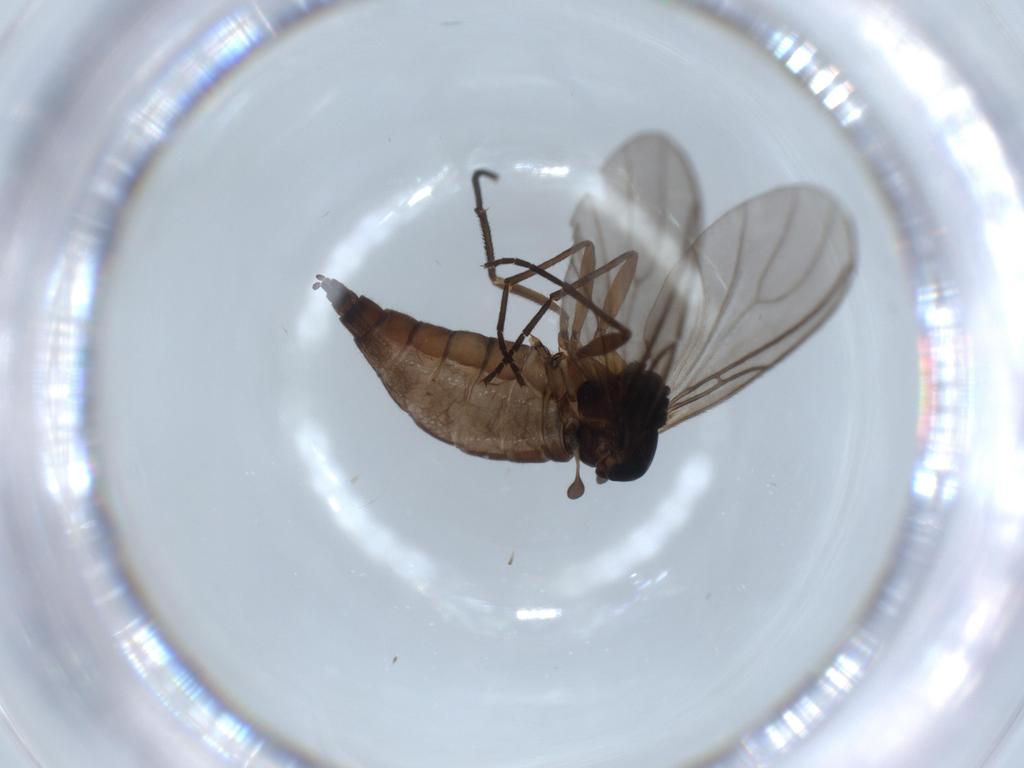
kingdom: Animalia
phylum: Arthropoda
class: Insecta
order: Diptera
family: Sciaridae
